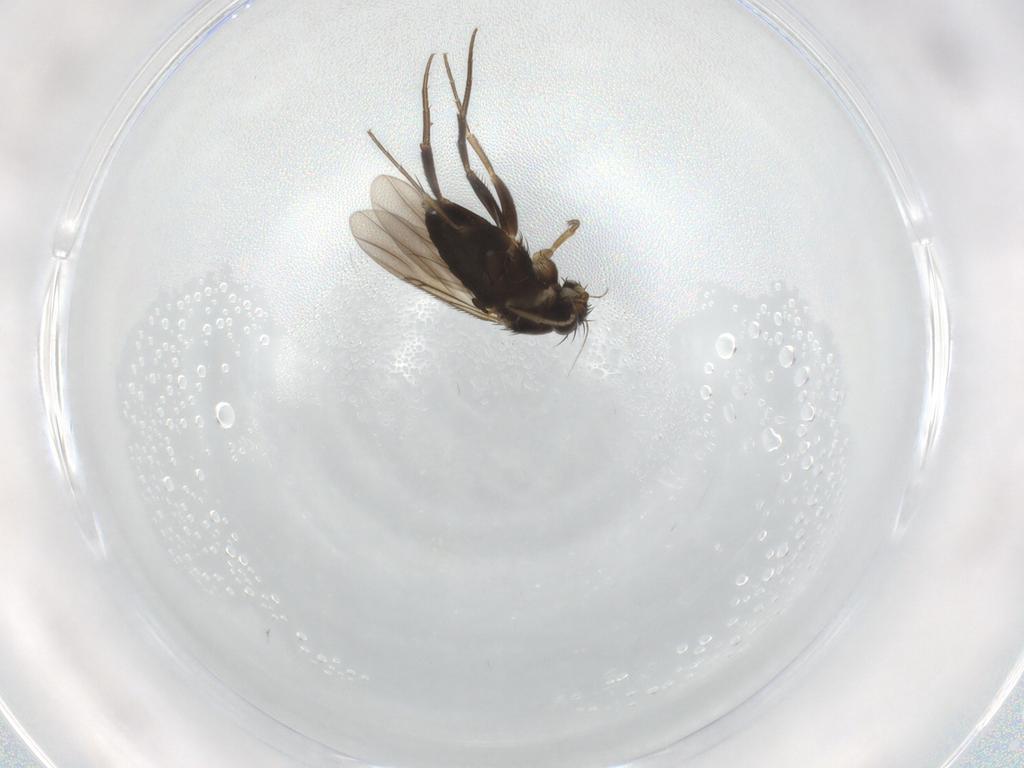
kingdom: Animalia
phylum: Arthropoda
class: Insecta
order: Diptera
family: Phoridae
